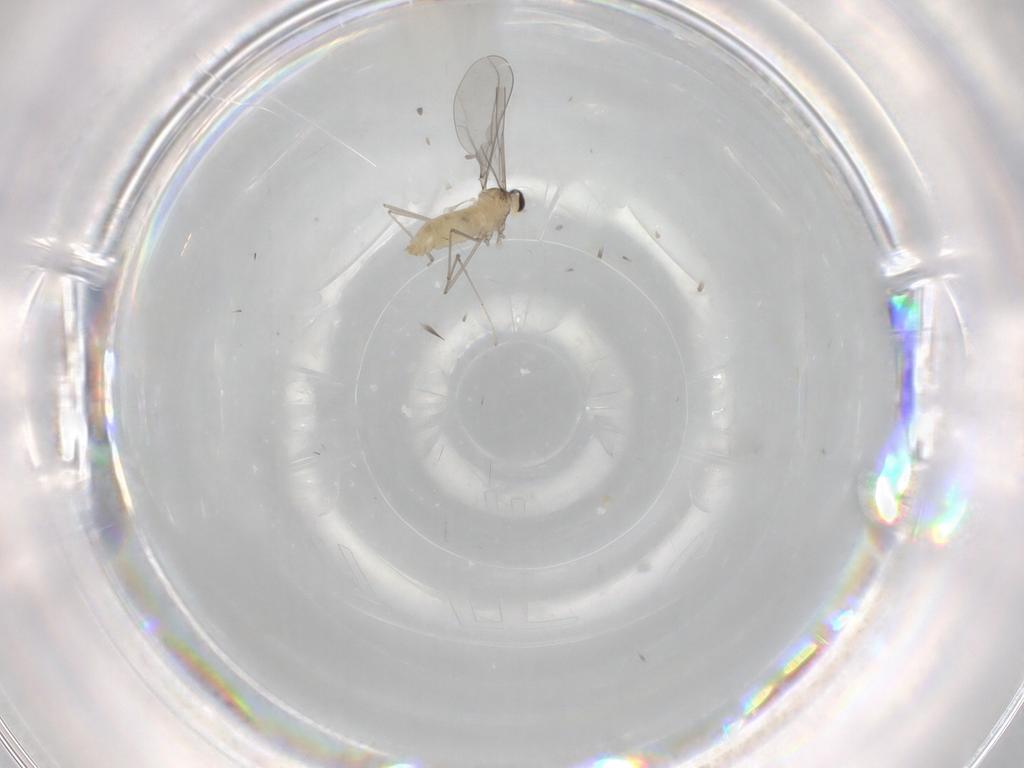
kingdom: Animalia
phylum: Arthropoda
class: Insecta
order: Diptera
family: Cecidomyiidae
